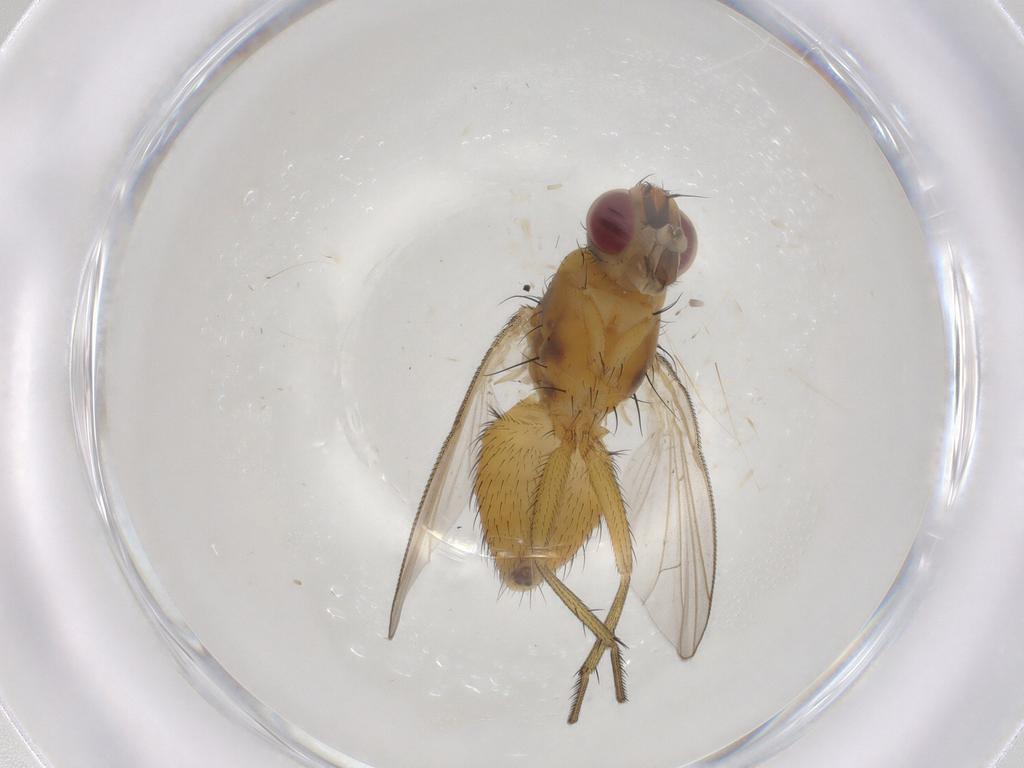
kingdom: Animalia
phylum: Arthropoda
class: Insecta
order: Diptera
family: Muscidae
